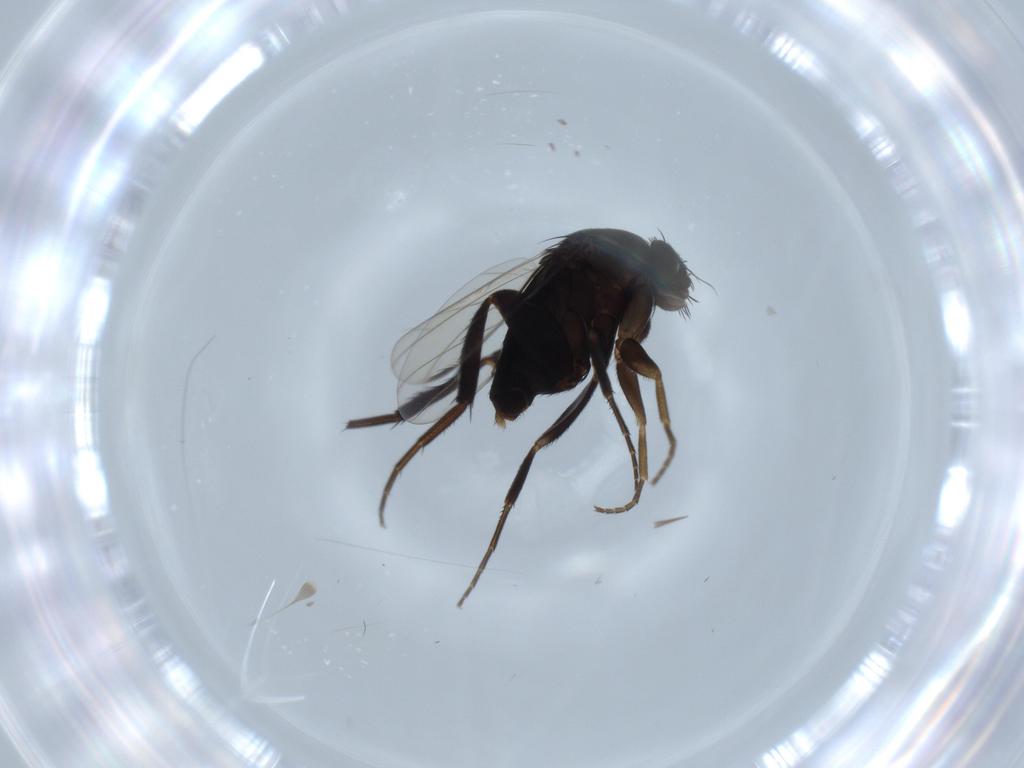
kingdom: Animalia
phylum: Arthropoda
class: Insecta
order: Diptera
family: Phoridae
